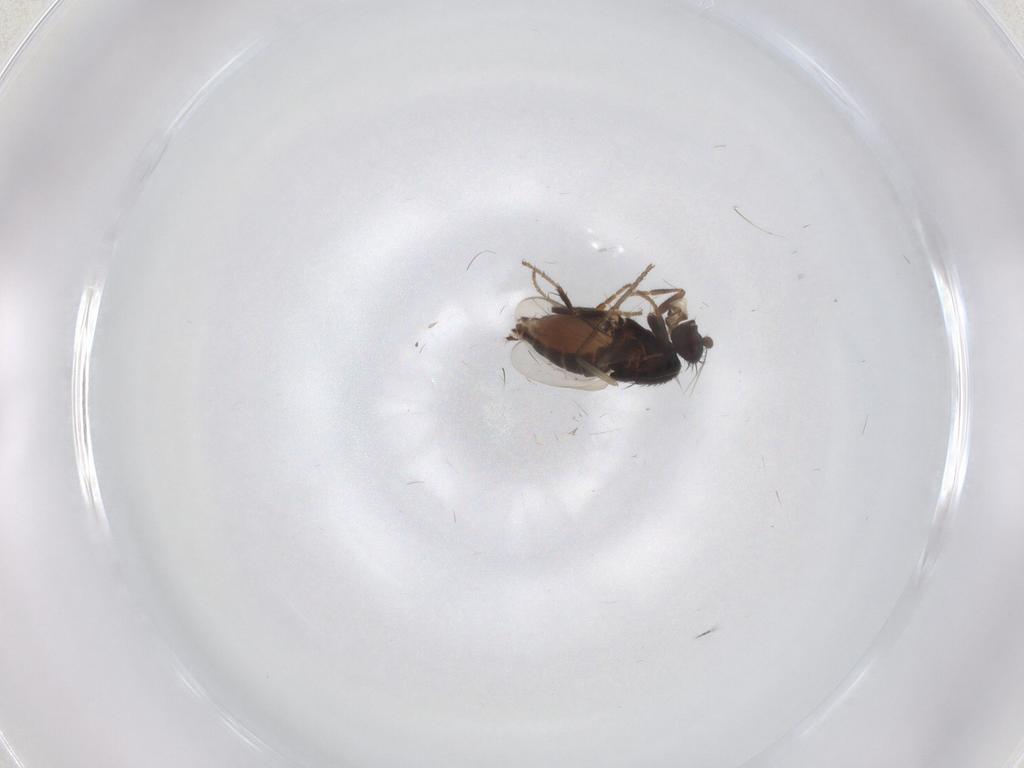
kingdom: Animalia
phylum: Arthropoda
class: Insecta
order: Diptera
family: Sphaeroceridae
